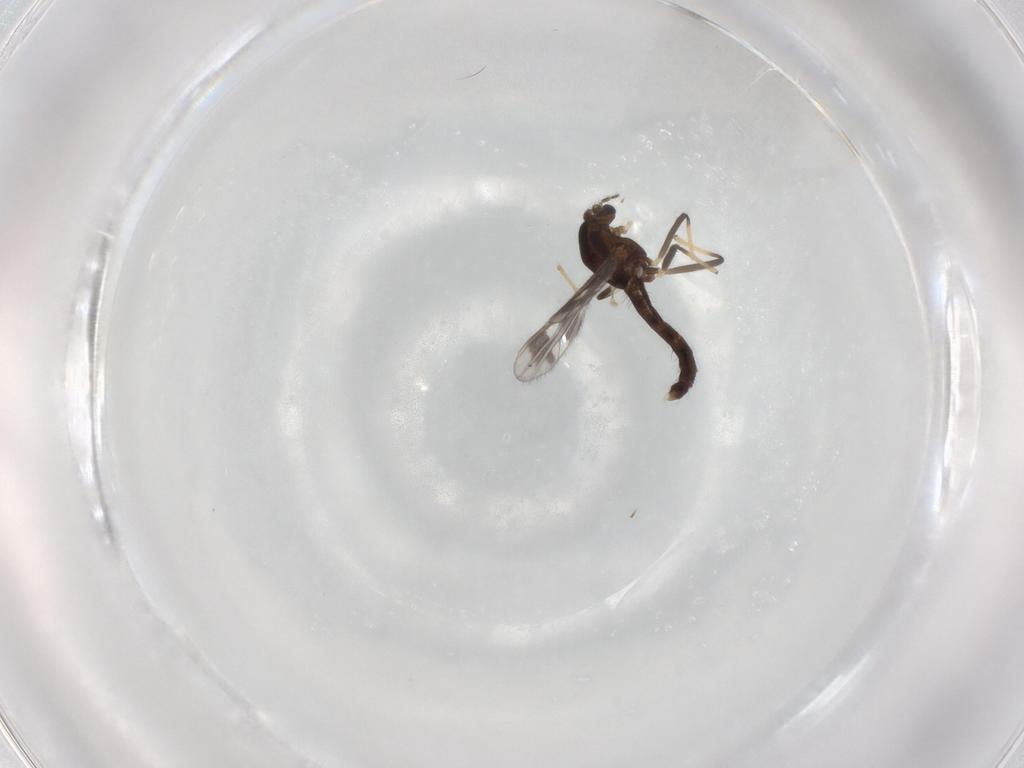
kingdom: Animalia
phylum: Arthropoda
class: Insecta
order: Diptera
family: Chironomidae
